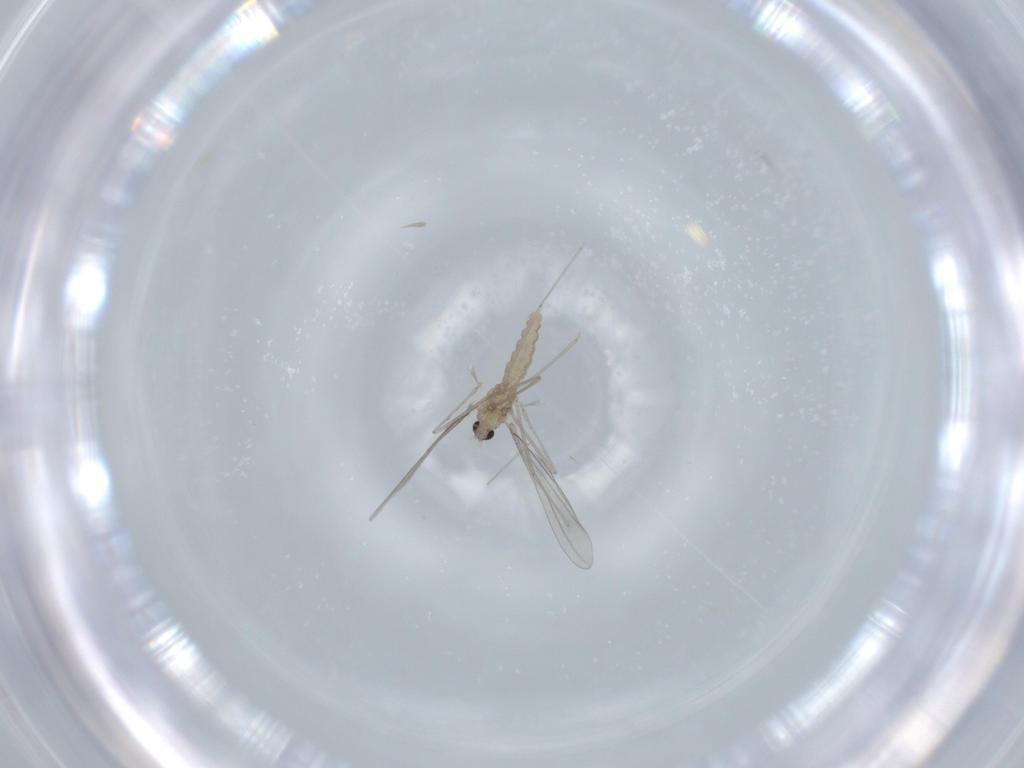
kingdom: Animalia
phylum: Arthropoda
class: Insecta
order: Diptera
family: Cecidomyiidae
